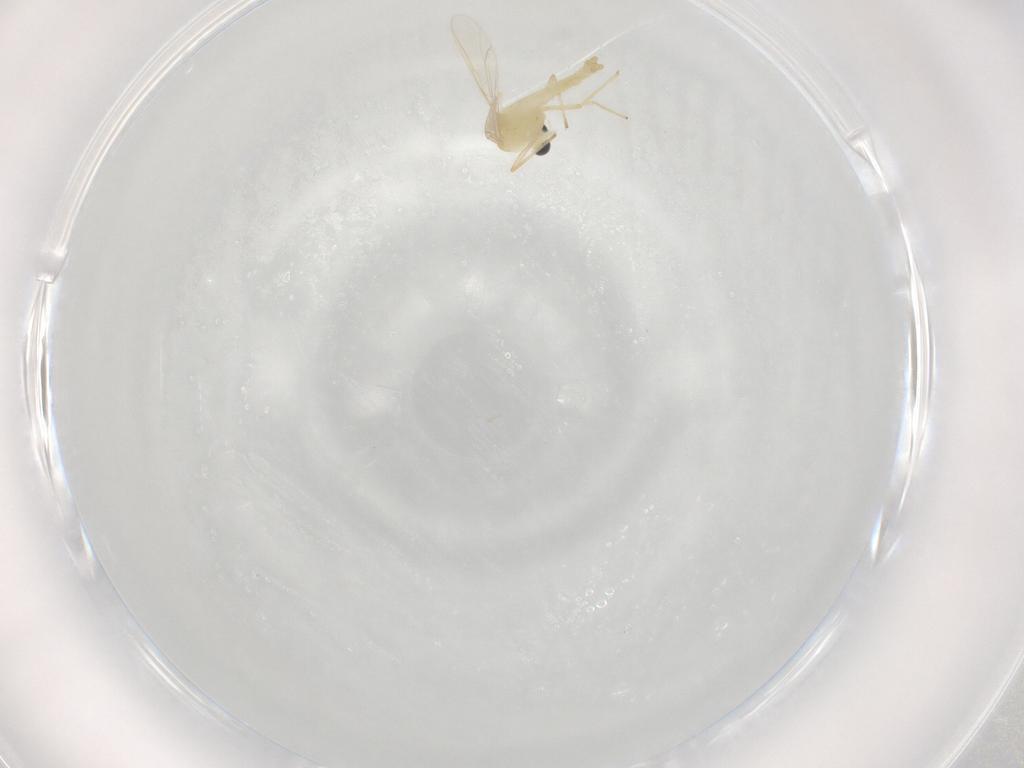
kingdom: Animalia
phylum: Arthropoda
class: Insecta
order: Diptera
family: Chironomidae
